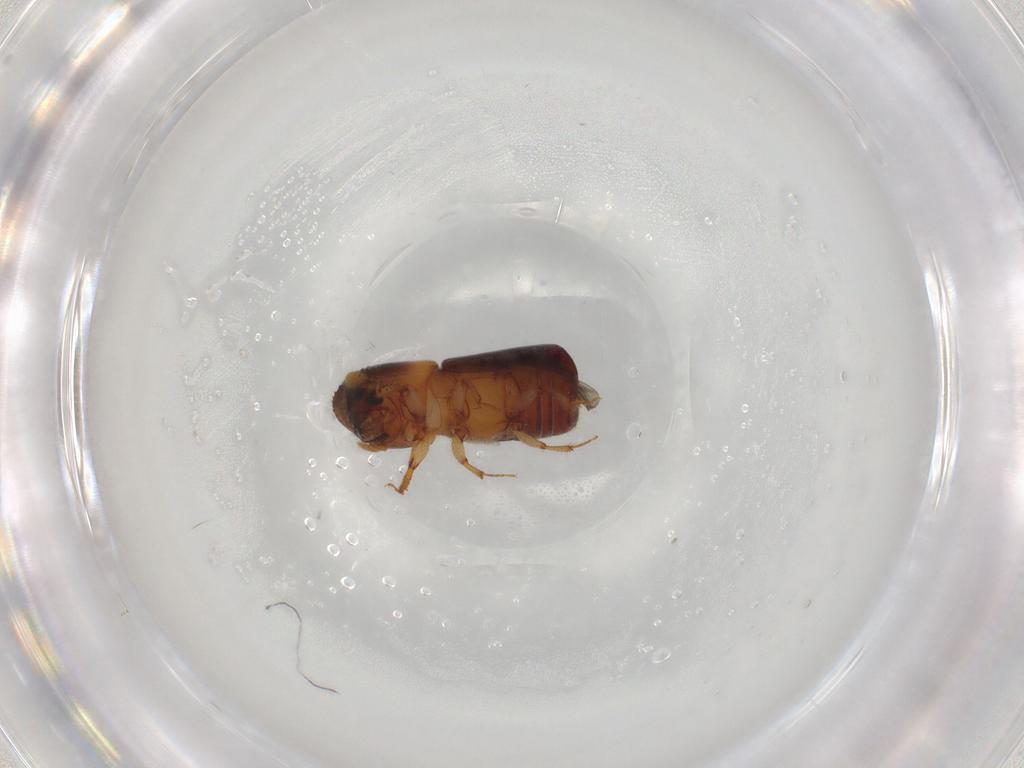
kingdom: Animalia
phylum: Arthropoda
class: Insecta
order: Coleoptera
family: Curculionidae
